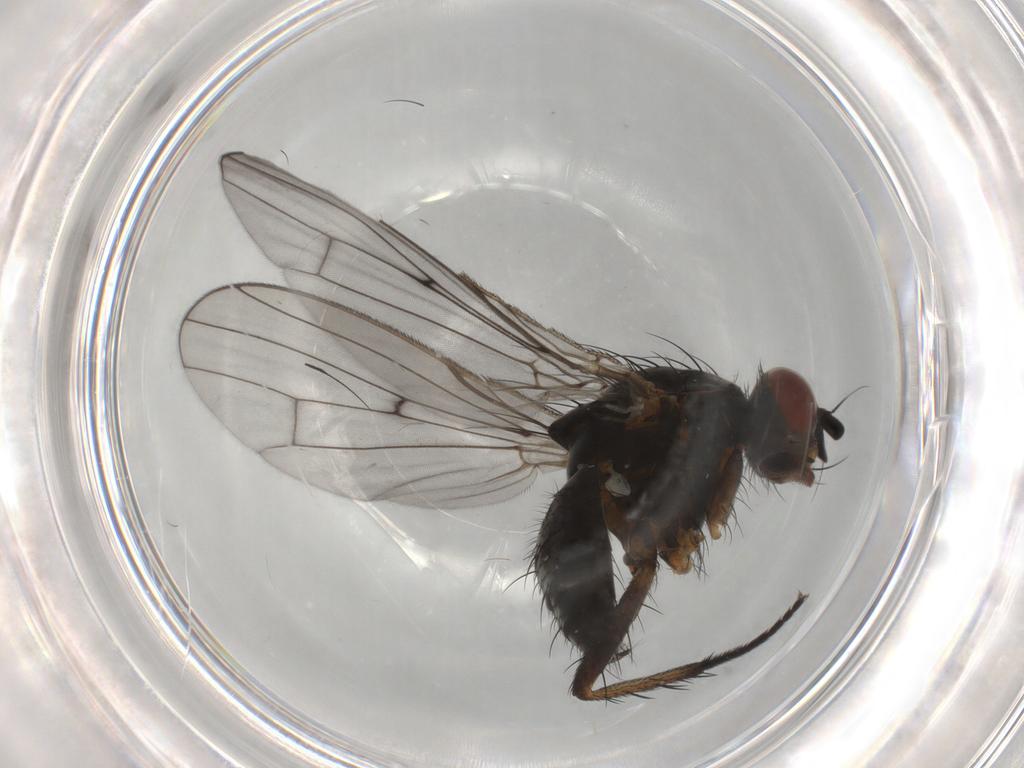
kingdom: Animalia
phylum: Arthropoda
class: Insecta
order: Diptera
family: Anthomyiidae
